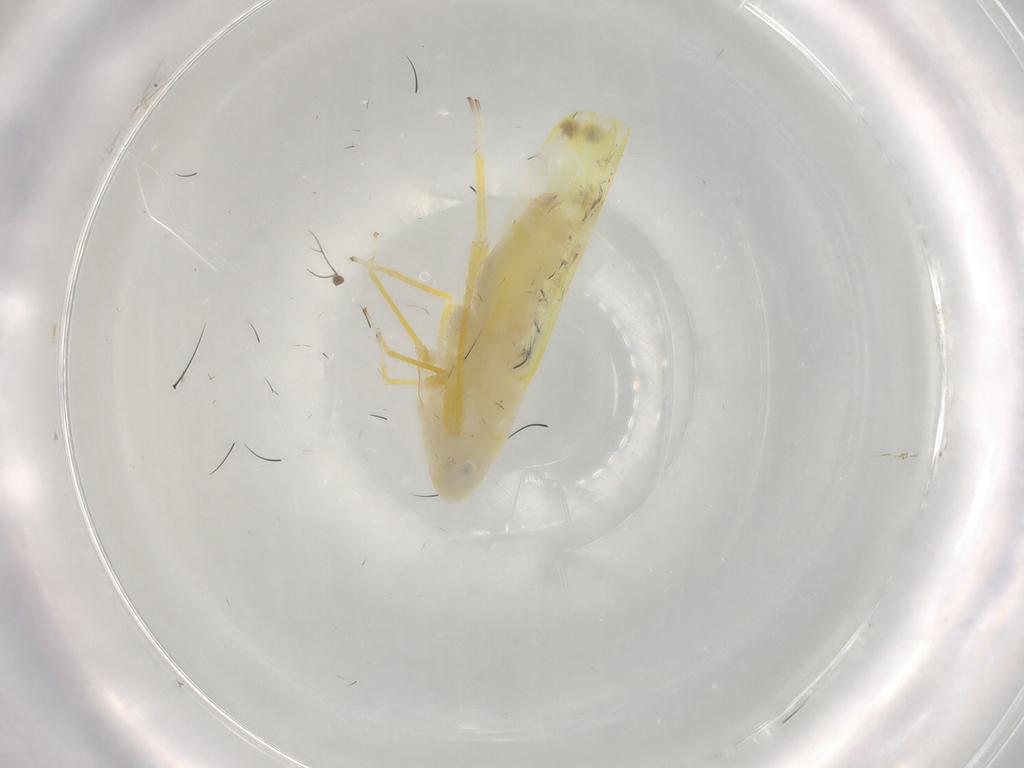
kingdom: Animalia
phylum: Arthropoda
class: Insecta
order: Hemiptera
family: Cicadellidae
